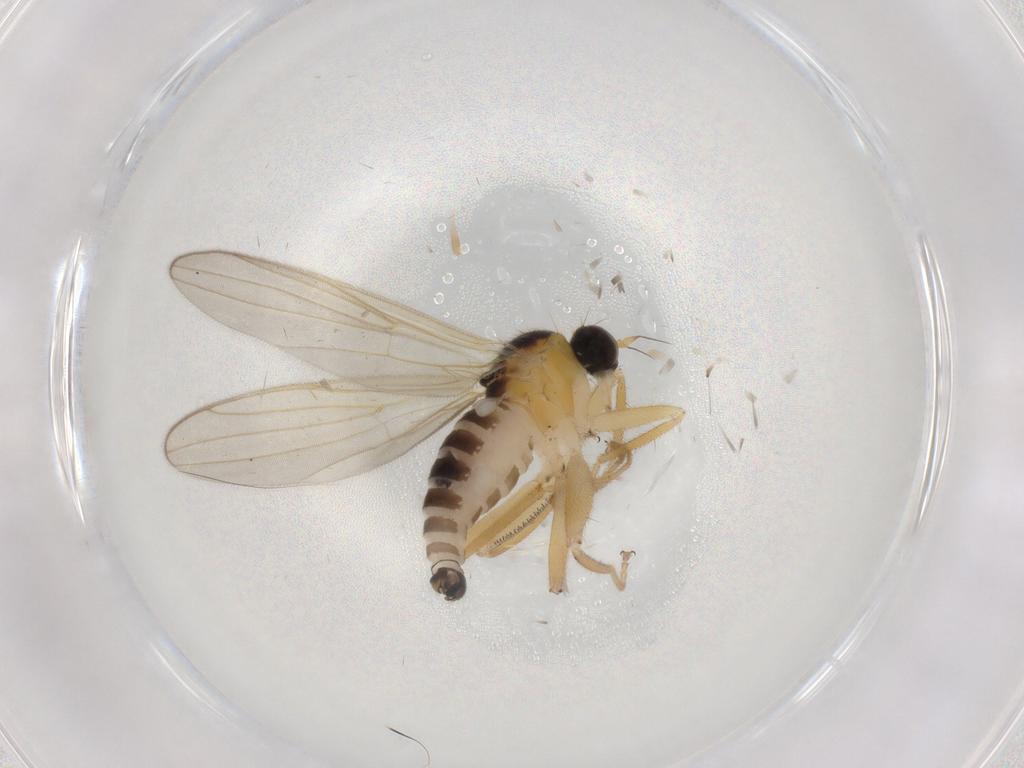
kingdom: Animalia
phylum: Arthropoda
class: Insecta
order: Diptera
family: Hybotidae
